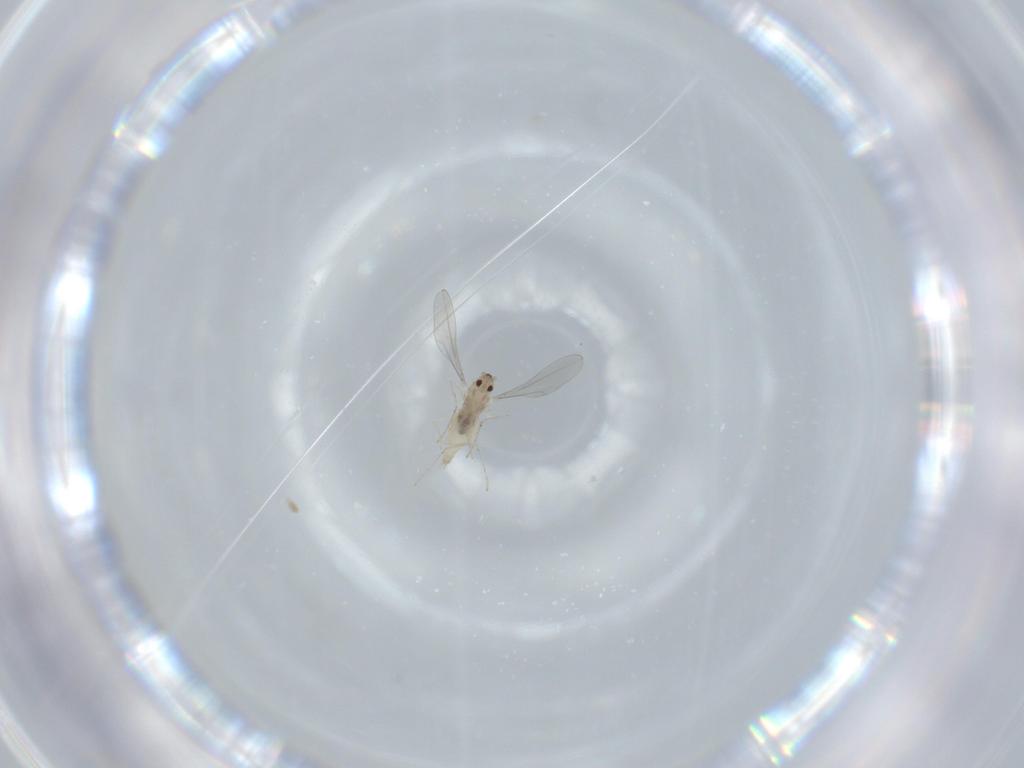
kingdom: Animalia
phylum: Arthropoda
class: Insecta
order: Diptera
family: Cecidomyiidae
